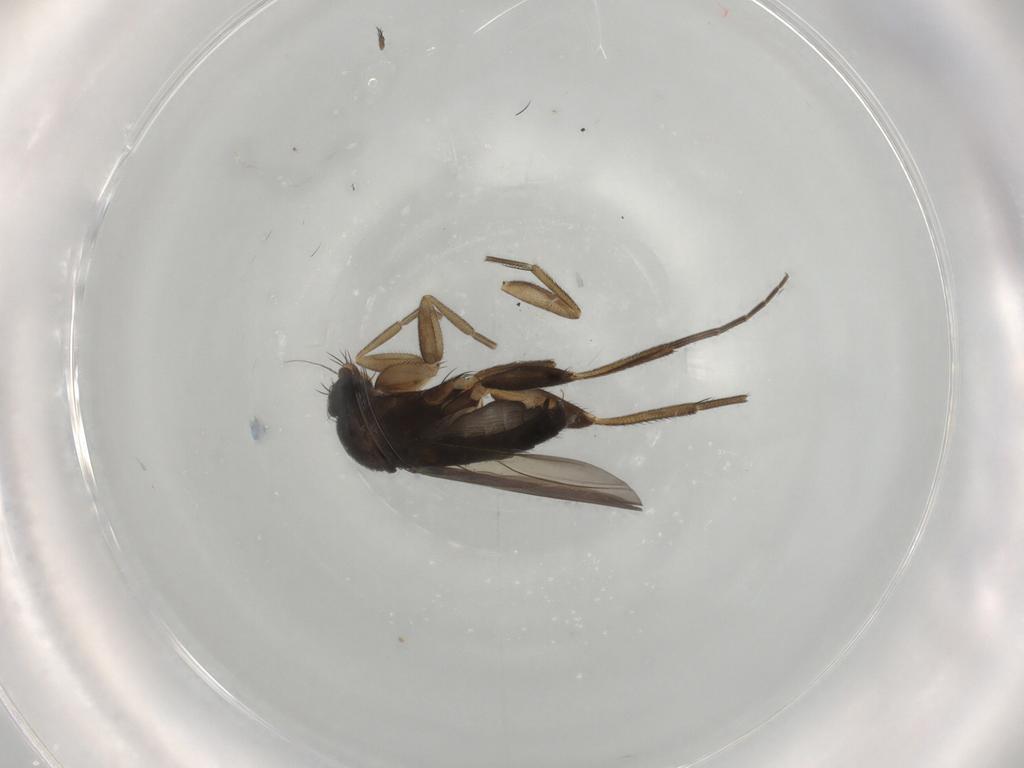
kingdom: Animalia
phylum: Arthropoda
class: Insecta
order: Diptera
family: Phoridae
